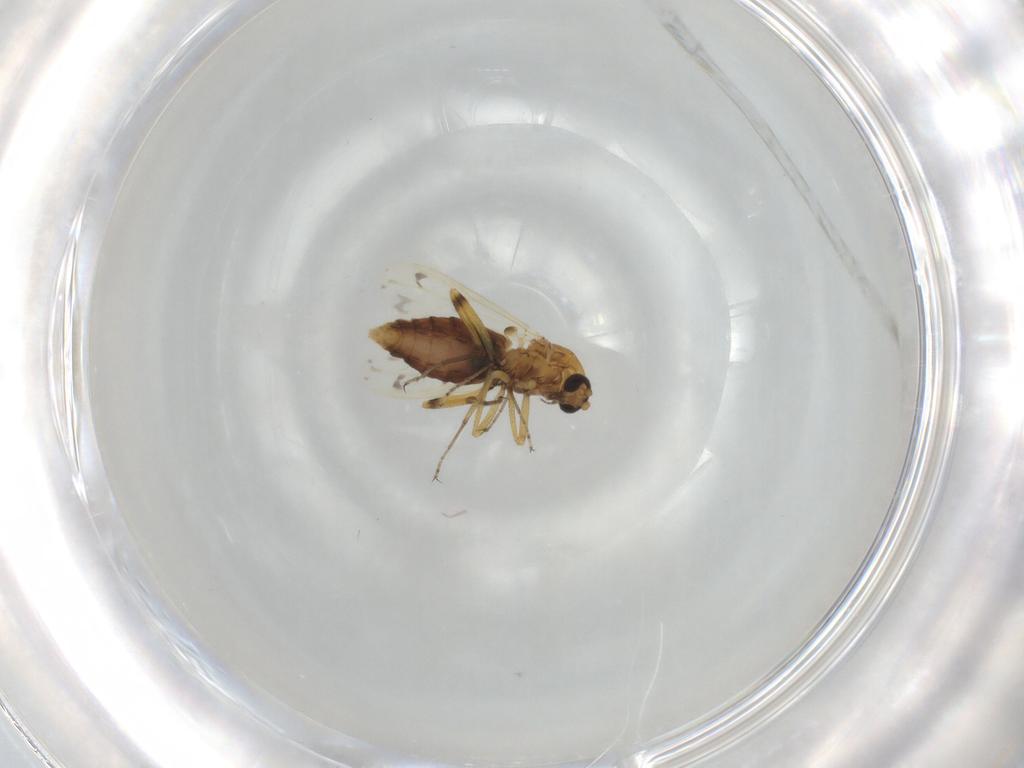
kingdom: Animalia
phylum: Arthropoda
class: Insecta
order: Diptera
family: Ceratopogonidae
